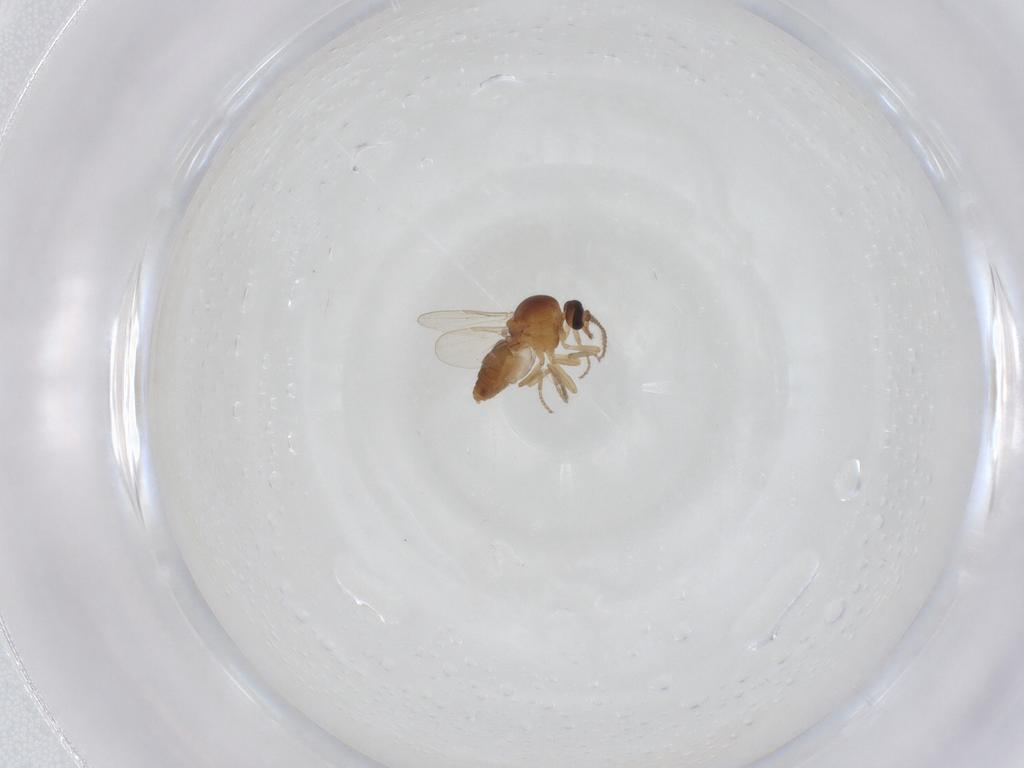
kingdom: Animalia
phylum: Arthropoda
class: Insecta
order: Diptera
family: Ceratopogonidae
